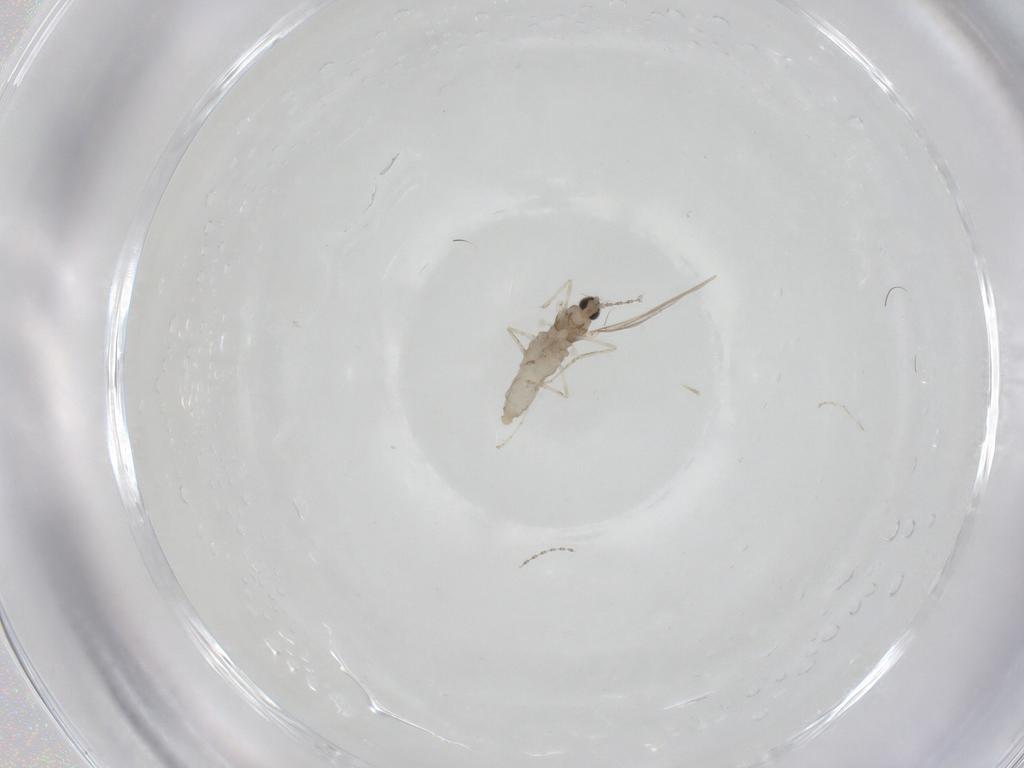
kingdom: Animalia
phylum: Arthropoda
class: Insecta
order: Diptera
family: Cecidomyiidae
